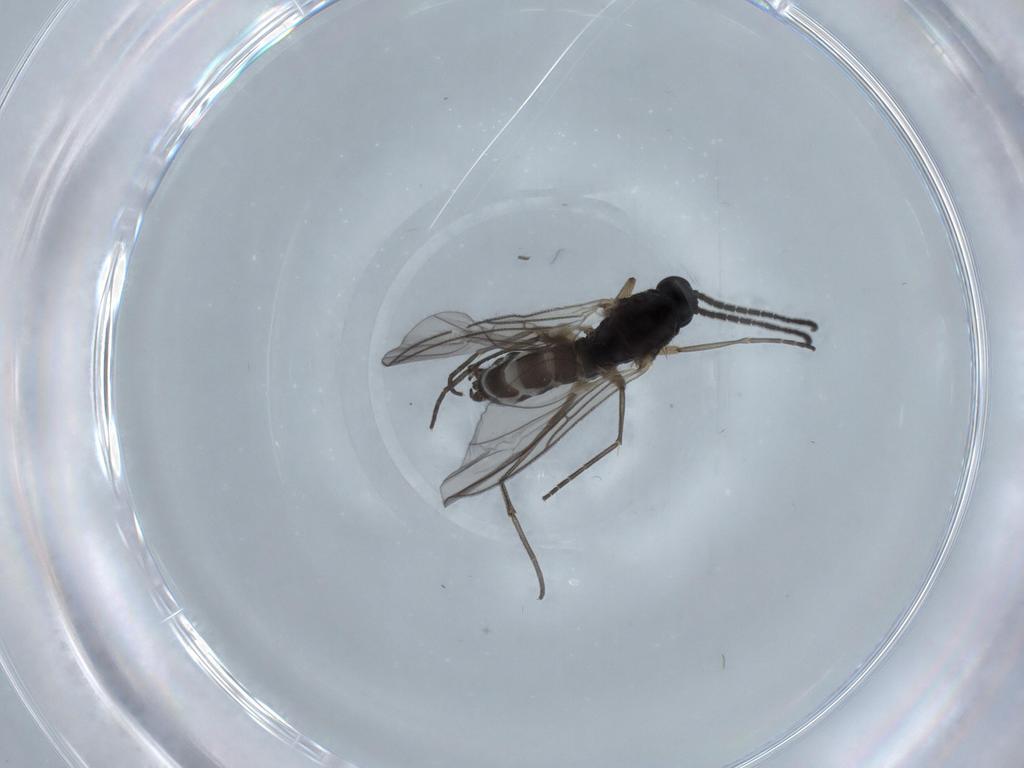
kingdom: Animalia
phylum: Arthropoda
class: Insecta
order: Diptera
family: Sciaridae
